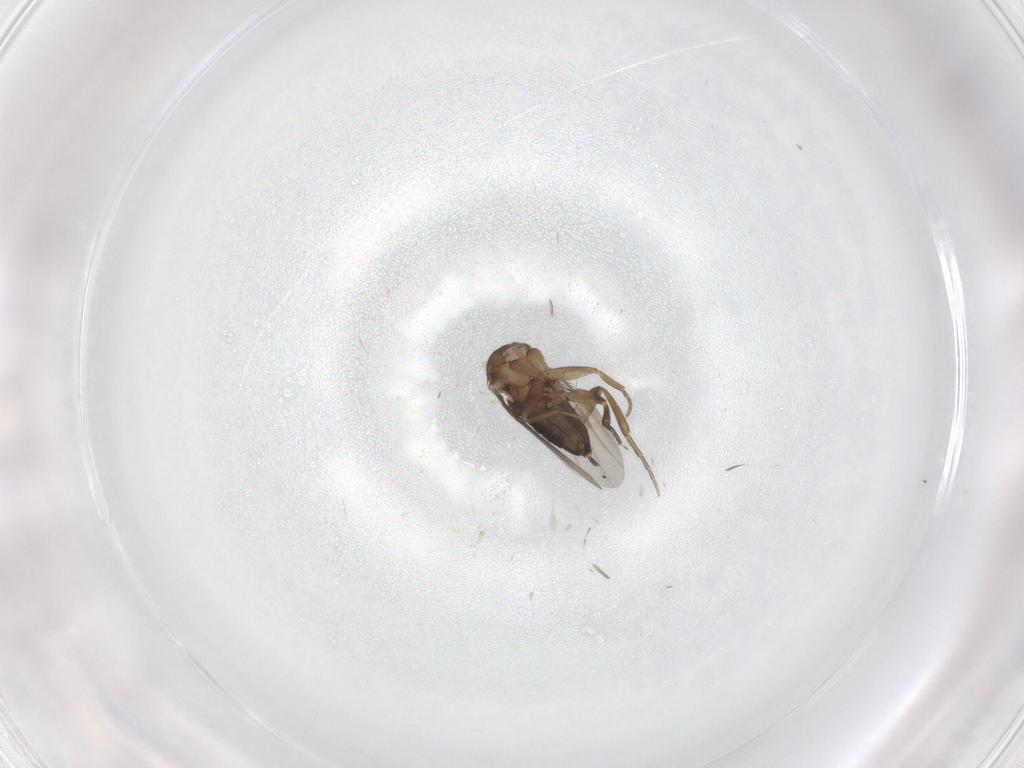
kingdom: Animalia
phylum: Arthropoda
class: Insecta
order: Diptera
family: Phoridae
